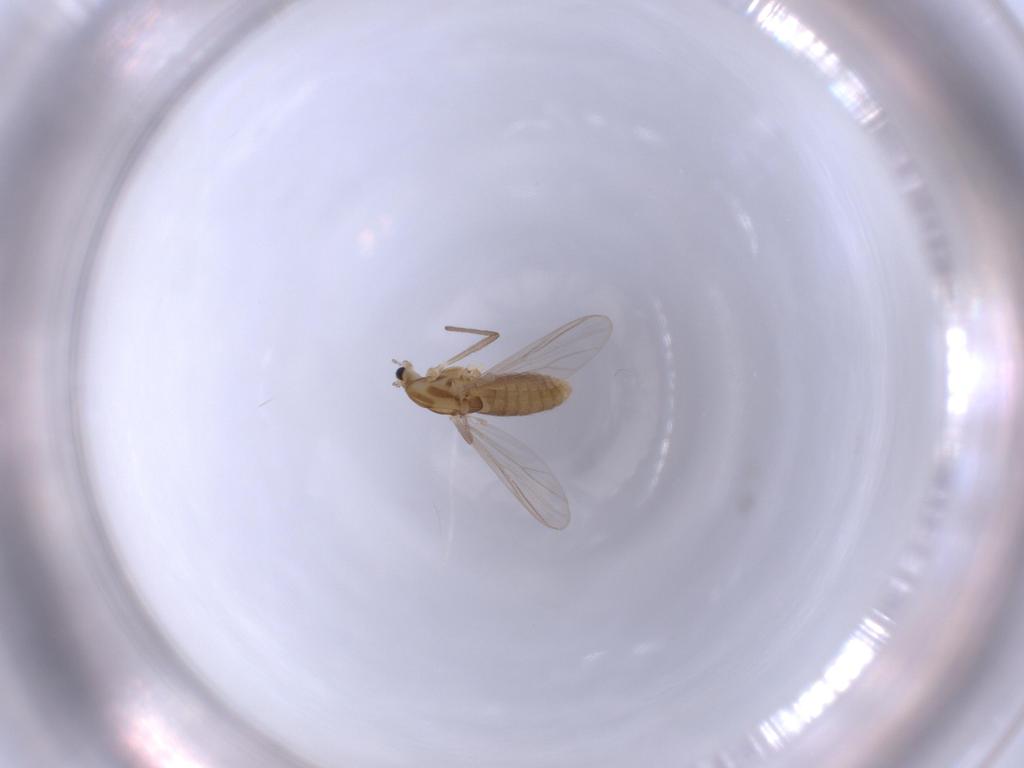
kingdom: Animalia
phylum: Arthropoda
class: Insecta
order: Diptera
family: Chironomidae
